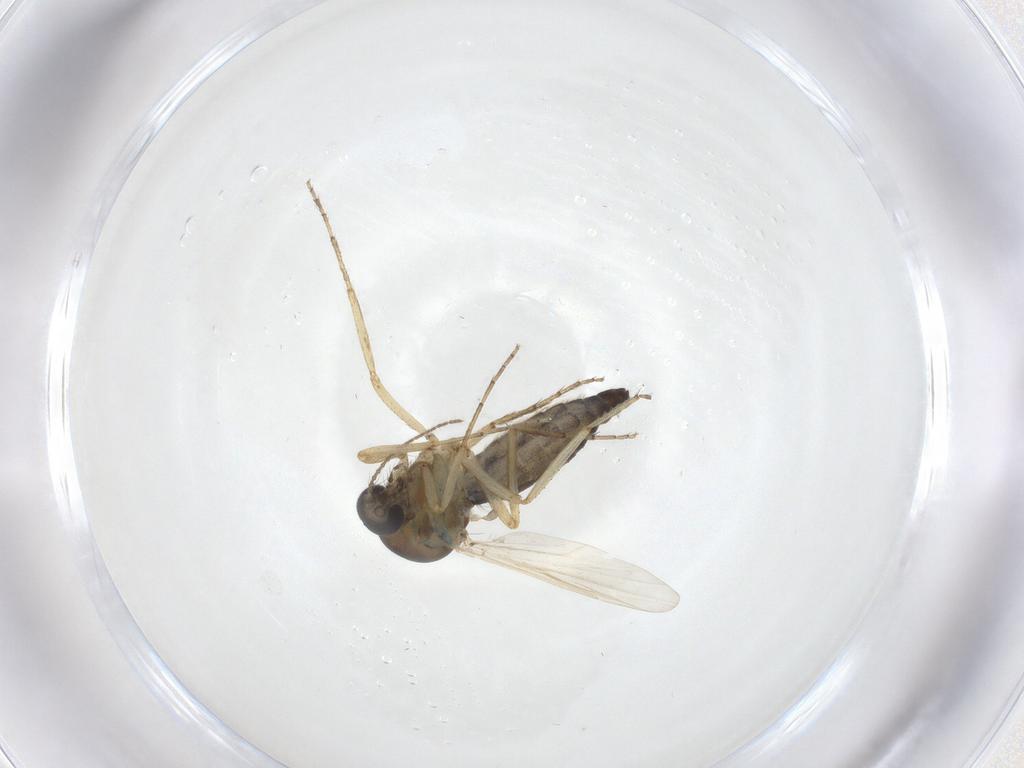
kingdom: Animalia
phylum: Arthropoda
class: Insecta
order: Diptera
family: Ceratopogonidae
